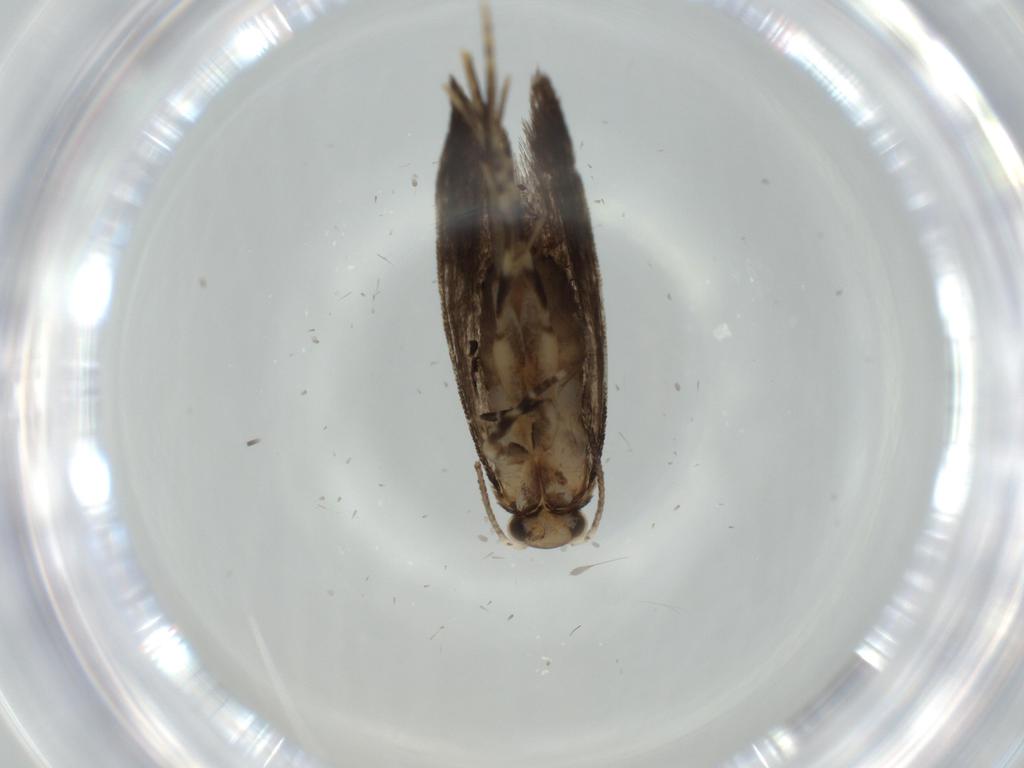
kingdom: Animalia
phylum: Arthropoda
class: Insecta
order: Lepidoptera
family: Tineidae
